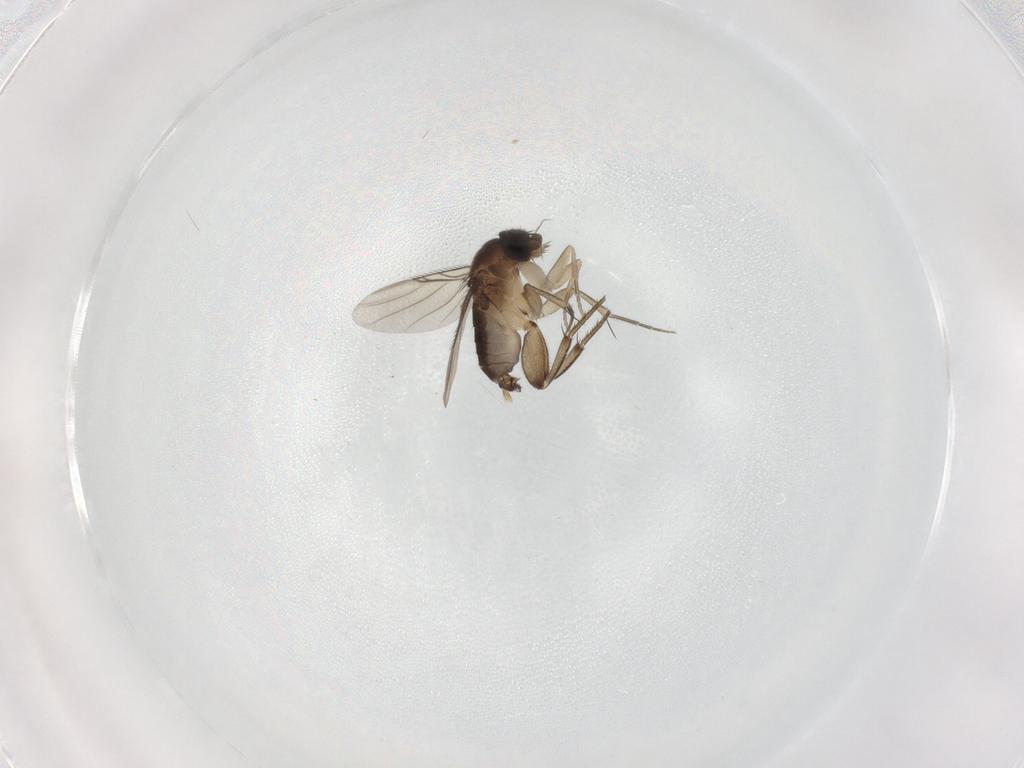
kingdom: Animalia
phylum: Arthropoda
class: Insecta
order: Diptera
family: Phoridae
